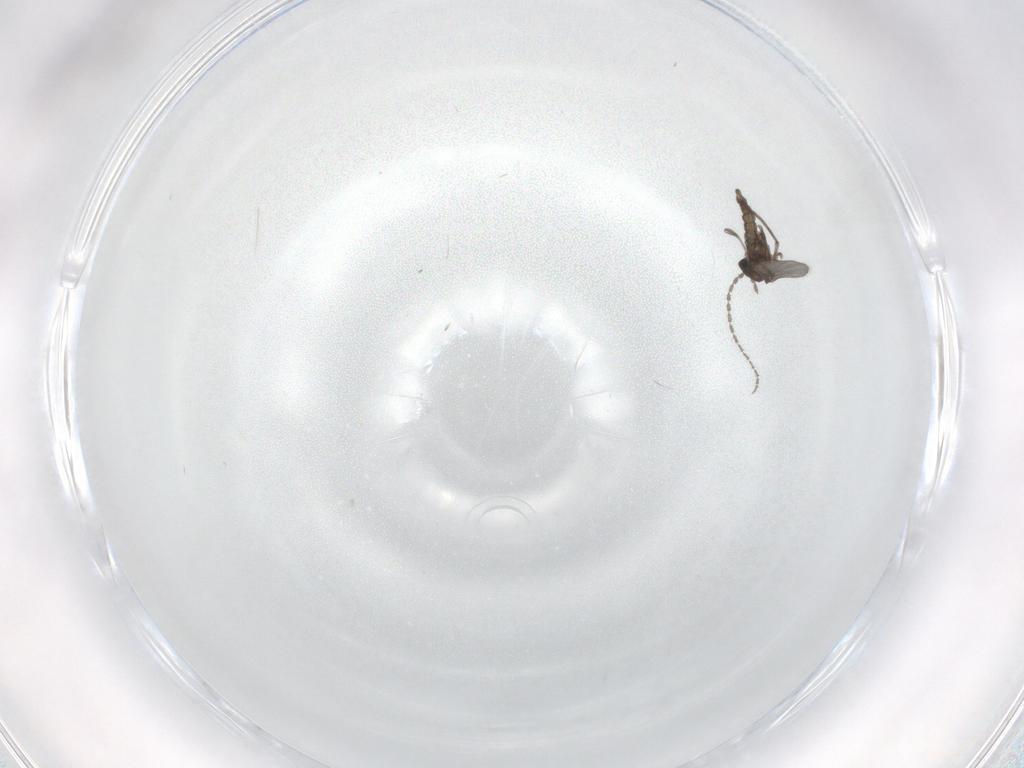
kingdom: Animalia
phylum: Arthropoda
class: Insecta
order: Diptera
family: Sciaridae
